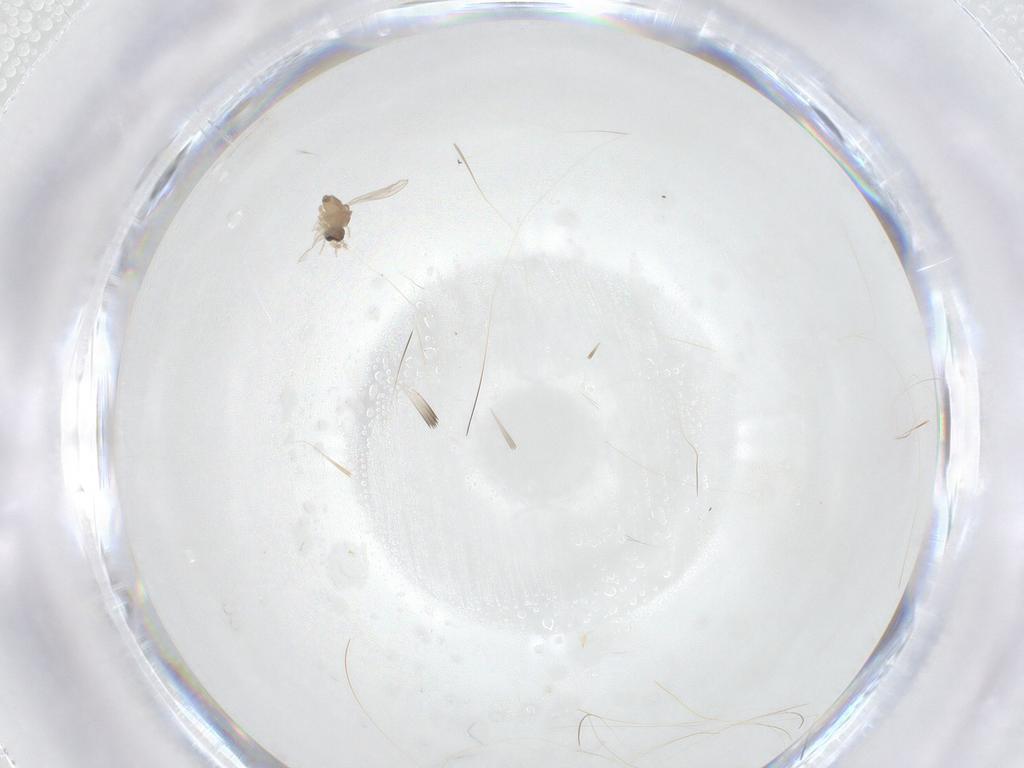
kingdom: Animalia
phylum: Arthropoda
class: Insecta
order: Diptera
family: Cecidomyiidae
